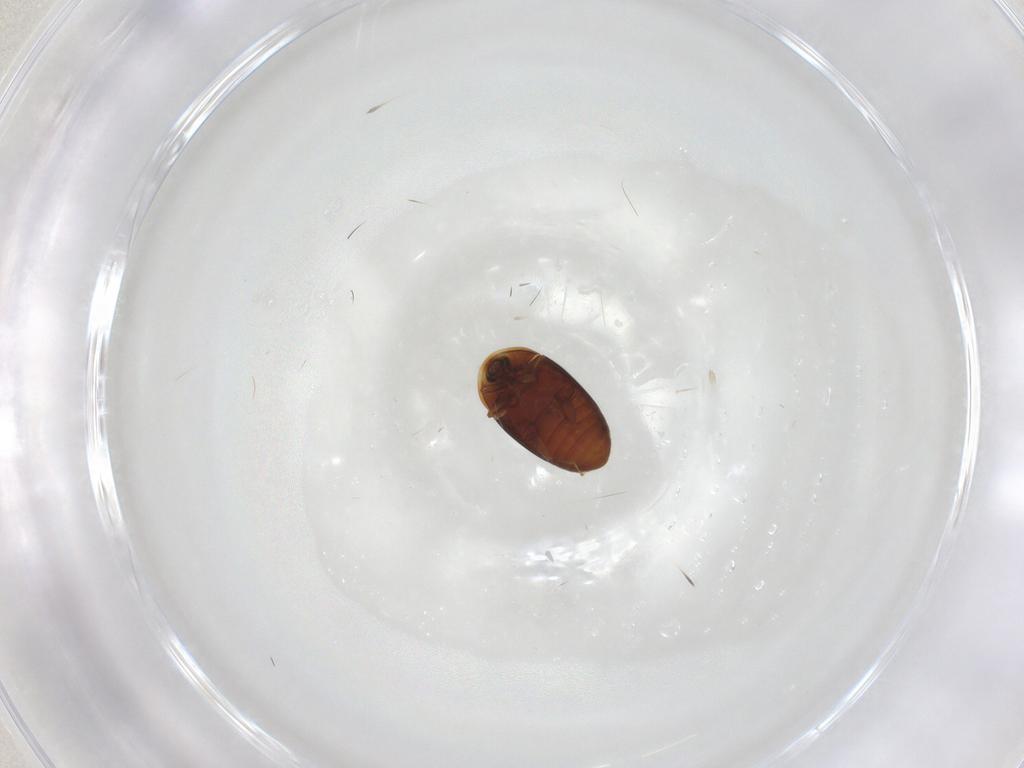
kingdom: Animalia
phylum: Arthropoda
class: Insecta
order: Coleoptera
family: Corylophidae
